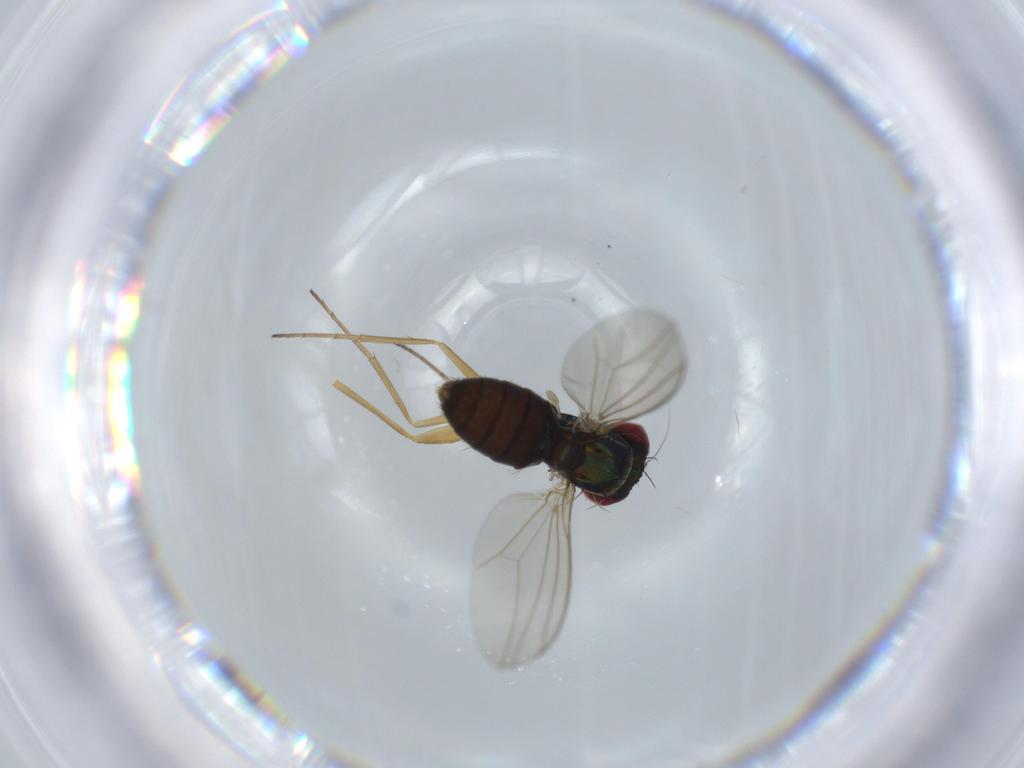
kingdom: Animalia
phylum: Arthropoda
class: Insecta
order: Diptera
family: Dolichopodidae
